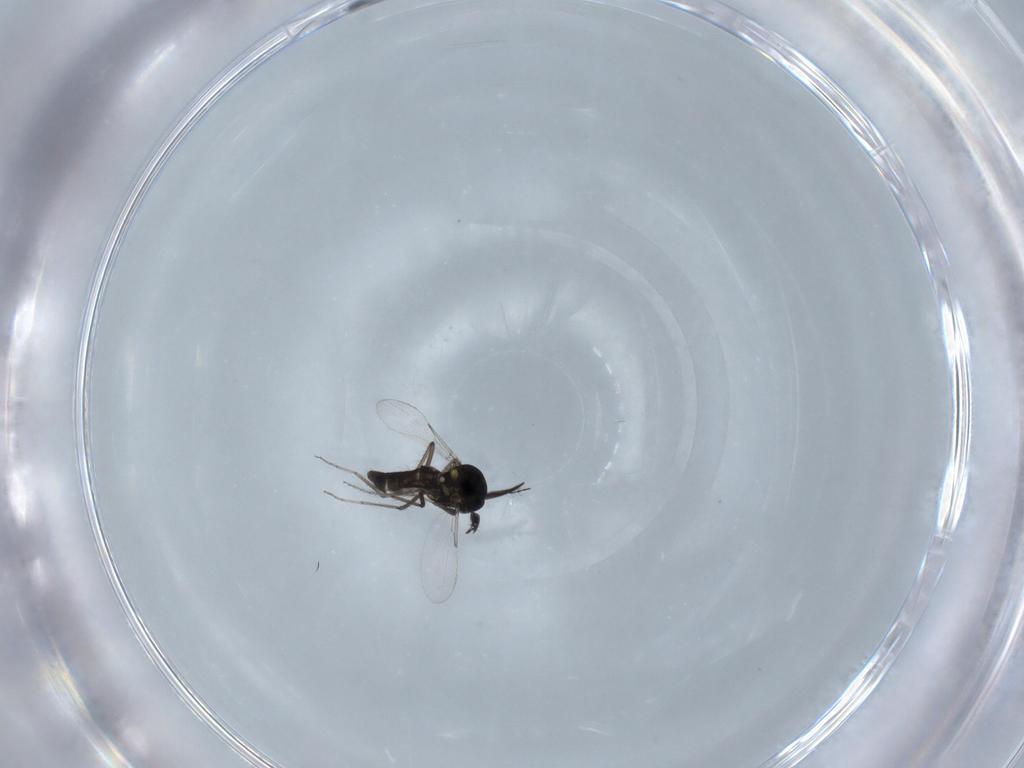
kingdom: Animalia
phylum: Arthropoda
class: Insecta
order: Diptera
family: Ceratopogonidae
